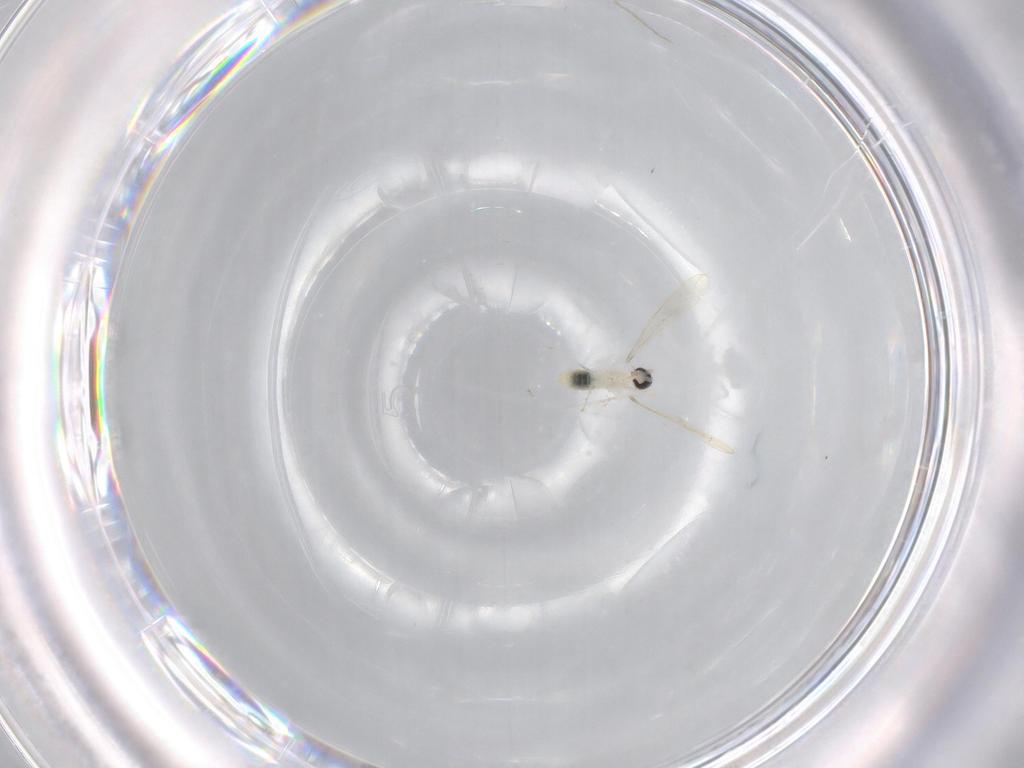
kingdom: Animalia
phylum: Arthropoda
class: Insecta
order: Diptera
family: Cecidomyiidae
